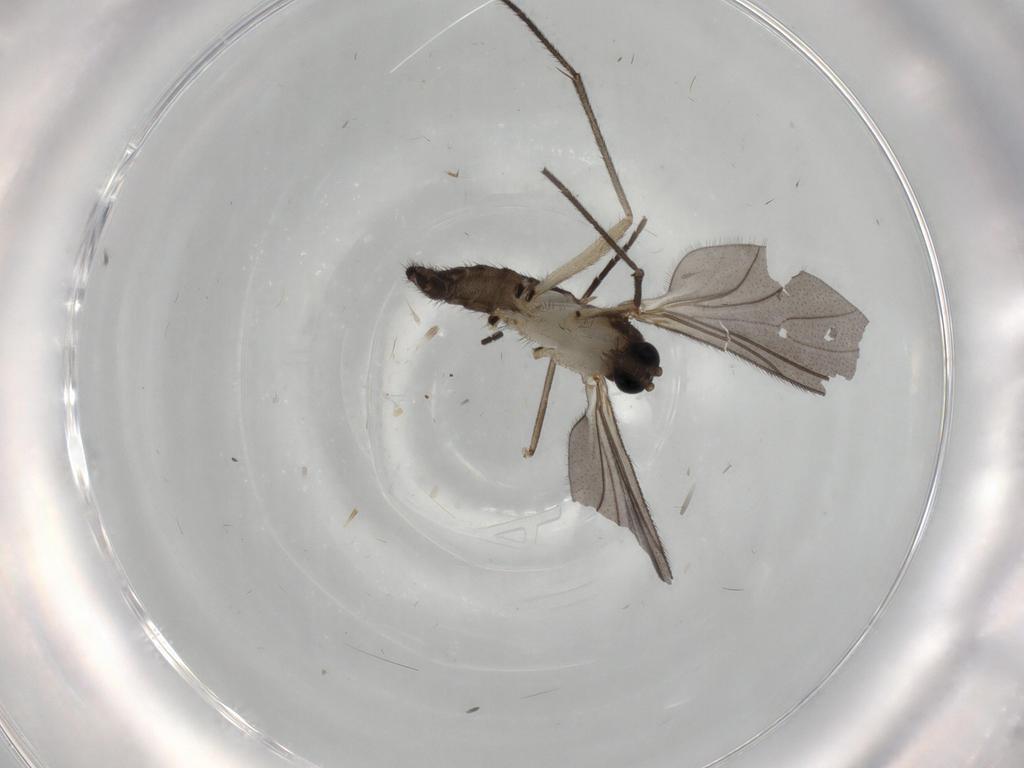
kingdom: Animalia
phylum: Arthropoda
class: Insecta
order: Diptera
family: Sciaridae
